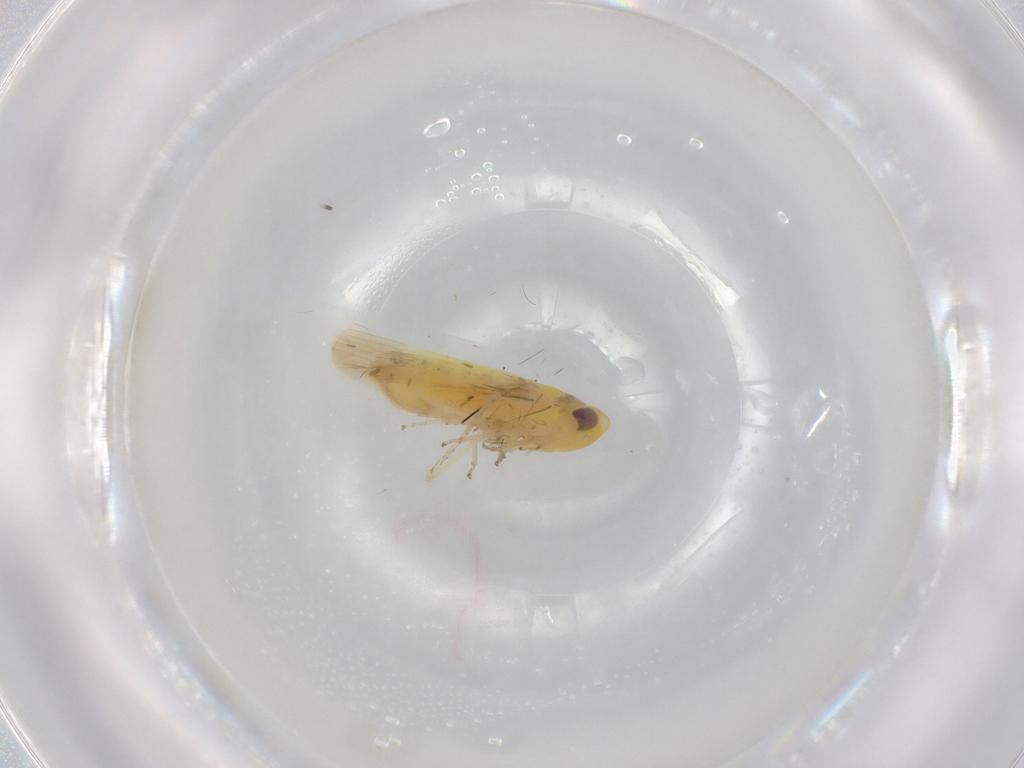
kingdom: Animalia
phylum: Arthropoda
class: Insecta
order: Hemiptera
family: Cicadellidae
